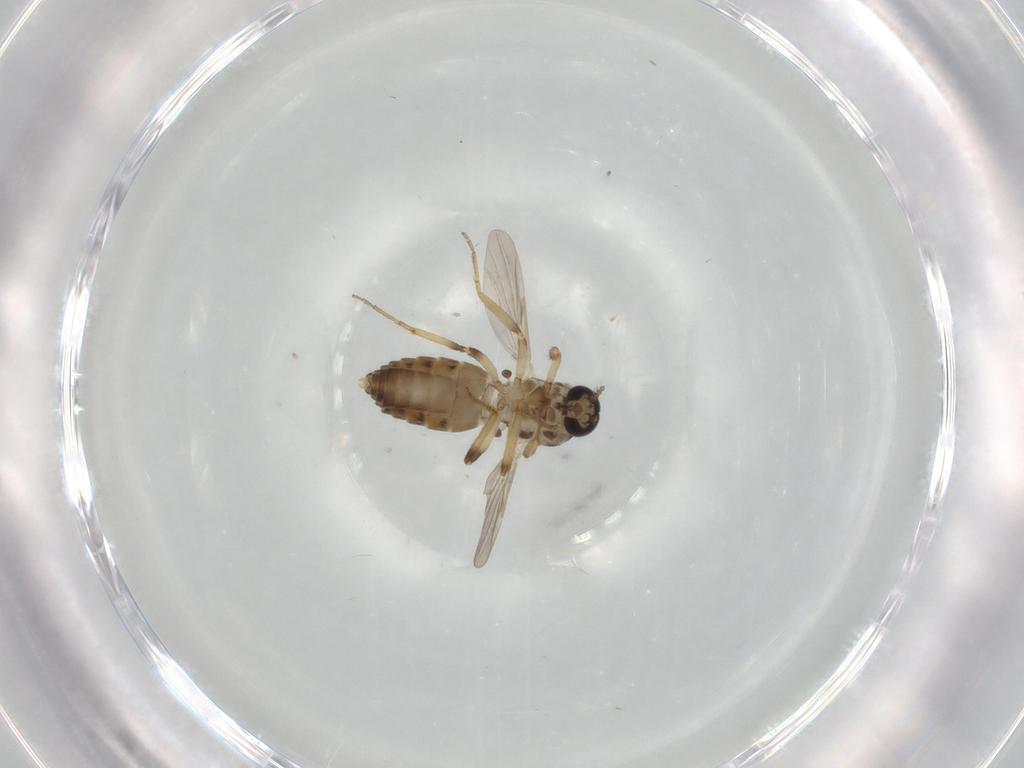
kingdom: Animalia
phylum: Arthropoda
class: Insecta
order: Diptera
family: Ceratopogonidae
